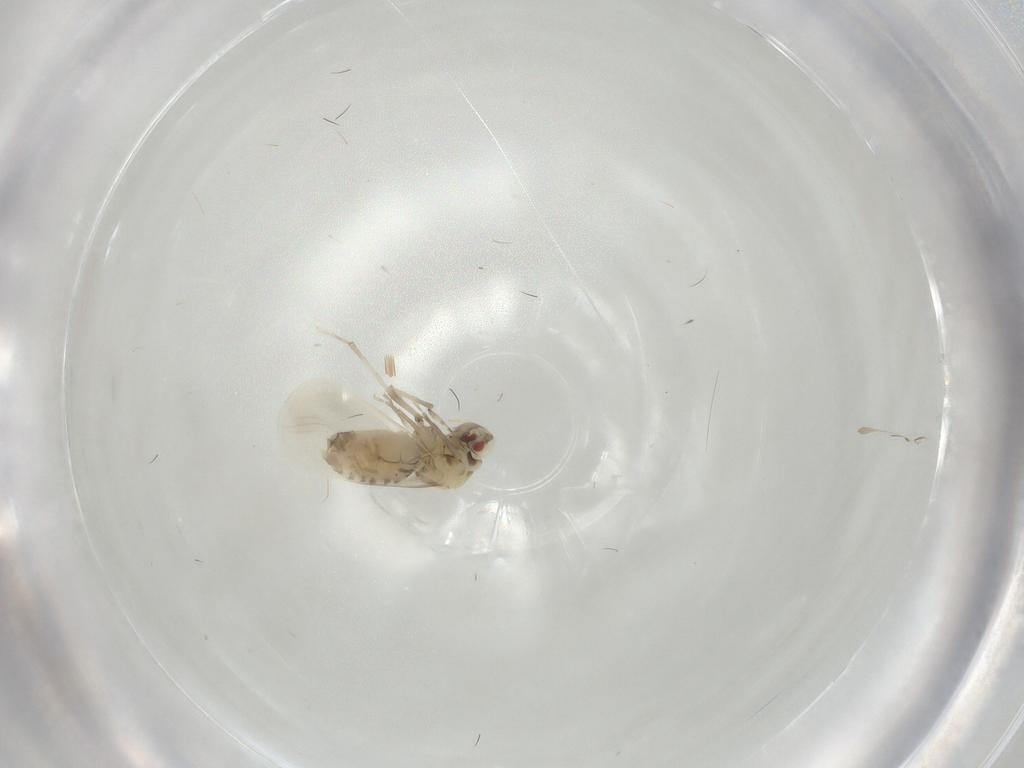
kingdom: Animalia
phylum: Arthropoda
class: Insecta
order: Hemiptera
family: Aleyrodidae
